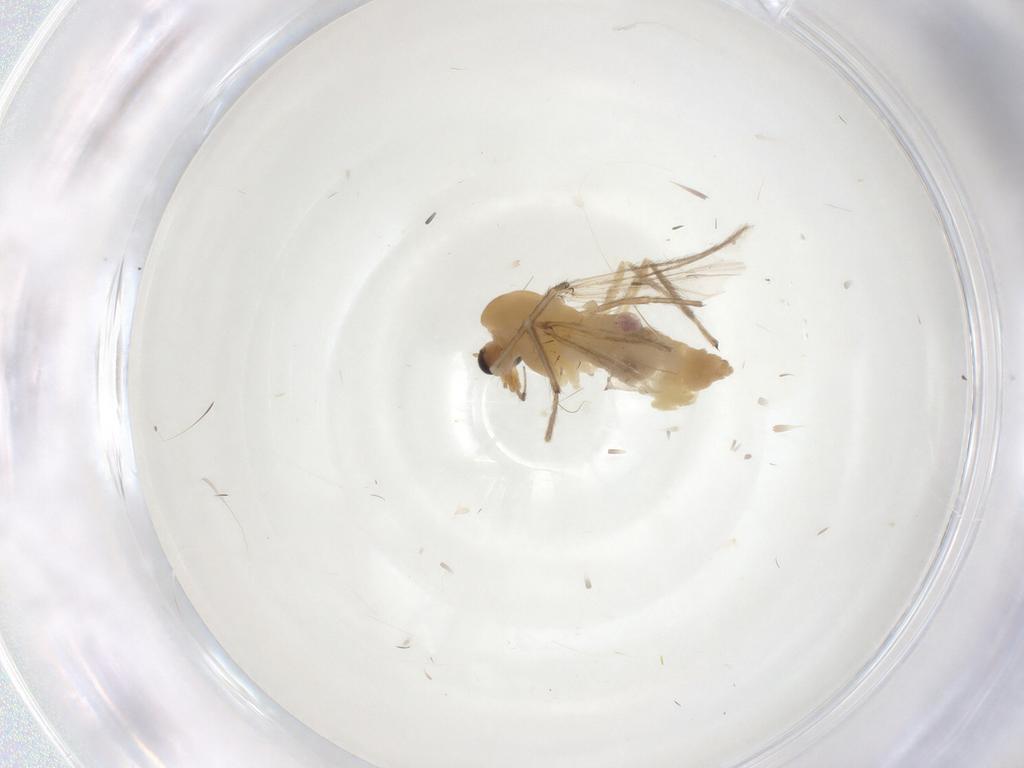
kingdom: Animalia
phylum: Arthropoda
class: Insecta
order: Diptera
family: Chironomidae
